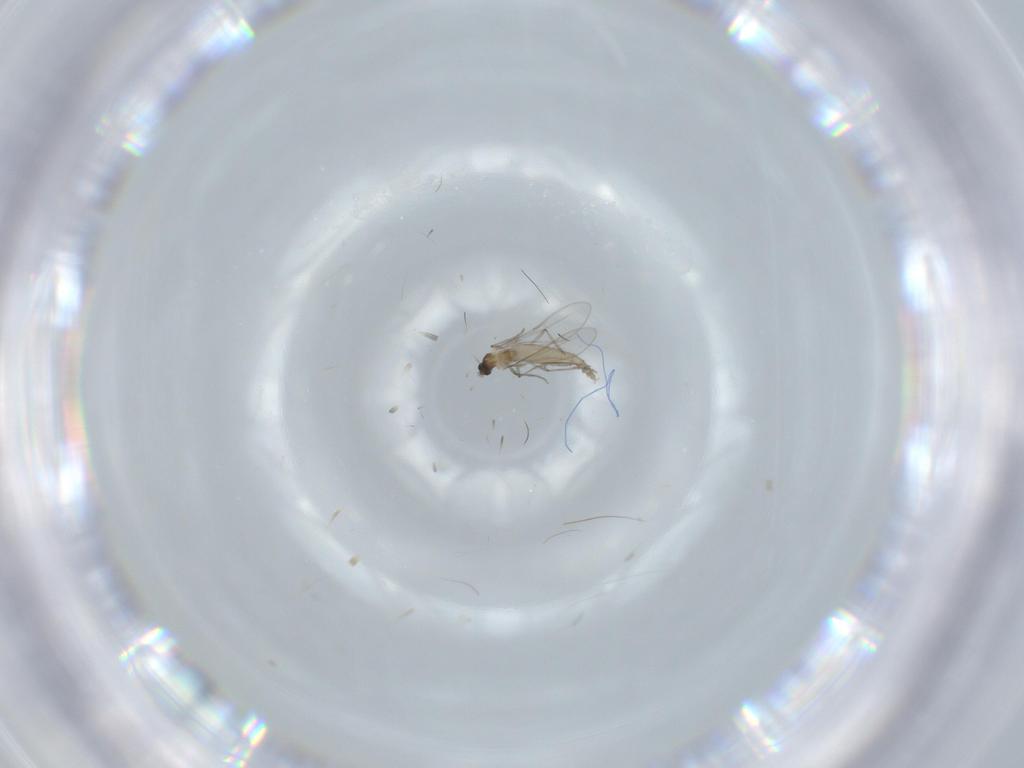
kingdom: Animalia
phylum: Arthropoda
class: Insecta
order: Diptera
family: Cecidomyiidae
